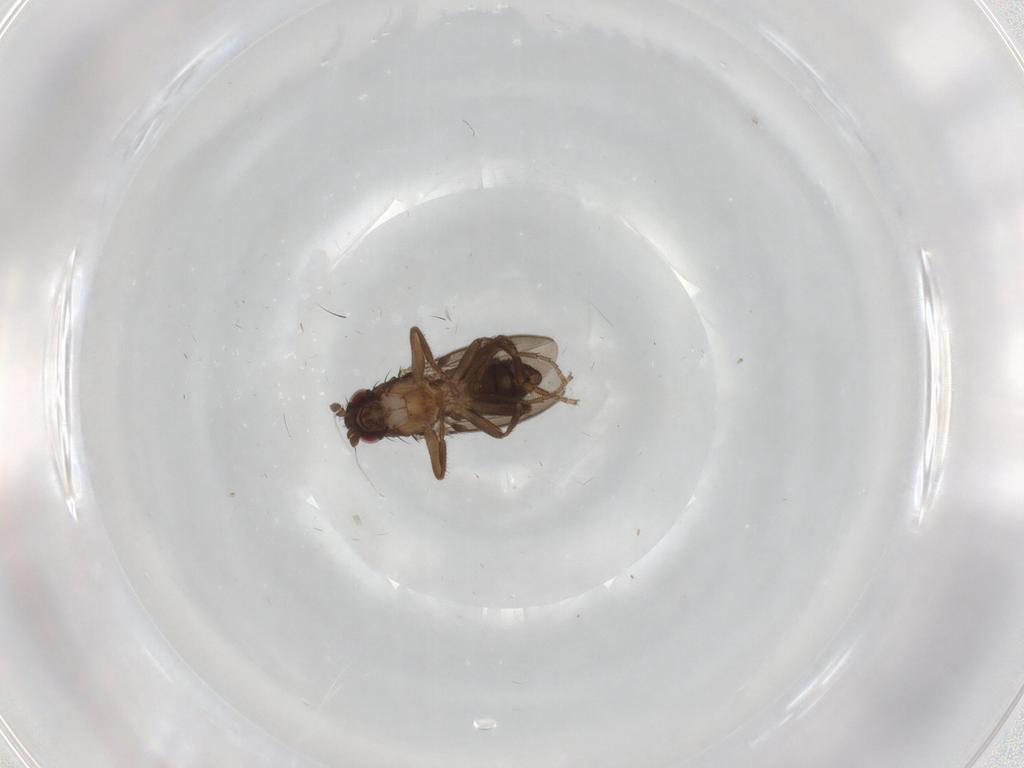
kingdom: Animalia
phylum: Arthropoda
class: Insecta
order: Diptera
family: Sphaeroceridae
